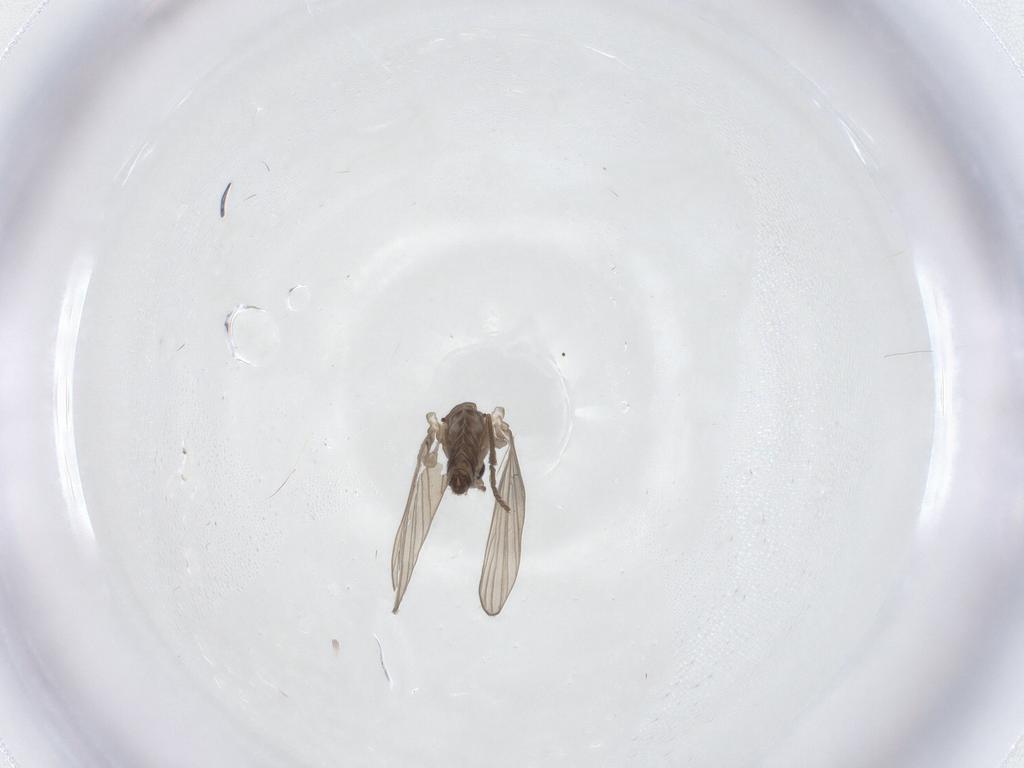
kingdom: Animalia
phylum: Arthropoda
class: Insecta
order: Diptera
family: Psychodidae
